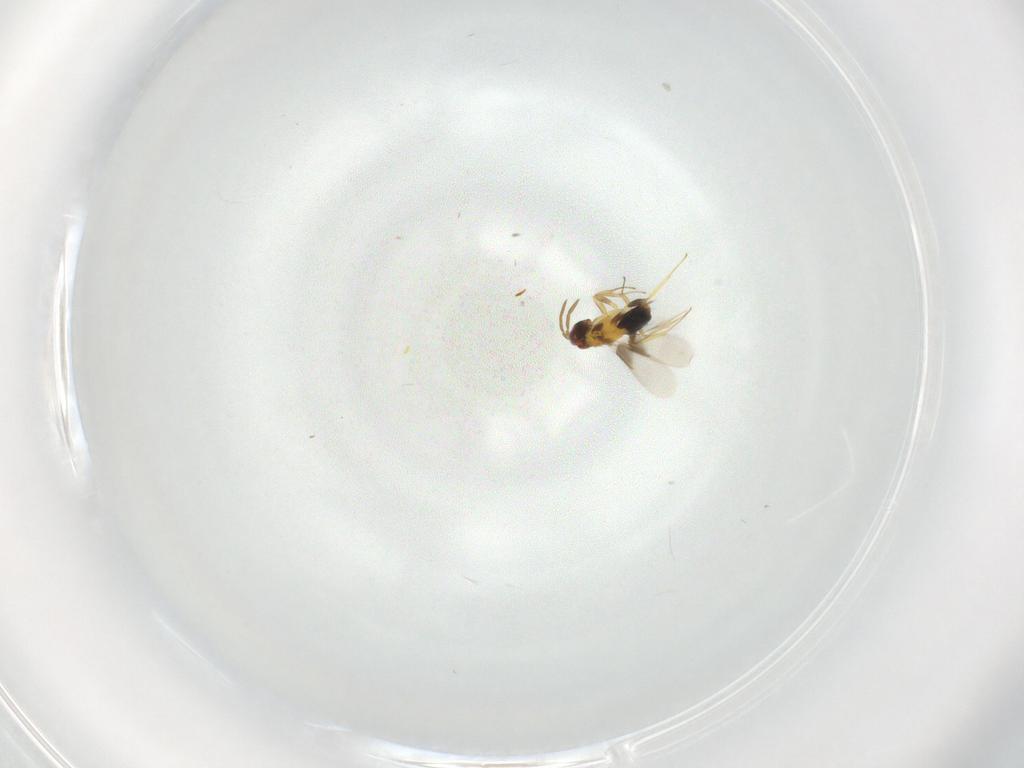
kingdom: Animalia
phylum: Arthropoda
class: Insecta
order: Hymenoptera
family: Aphelinidae
